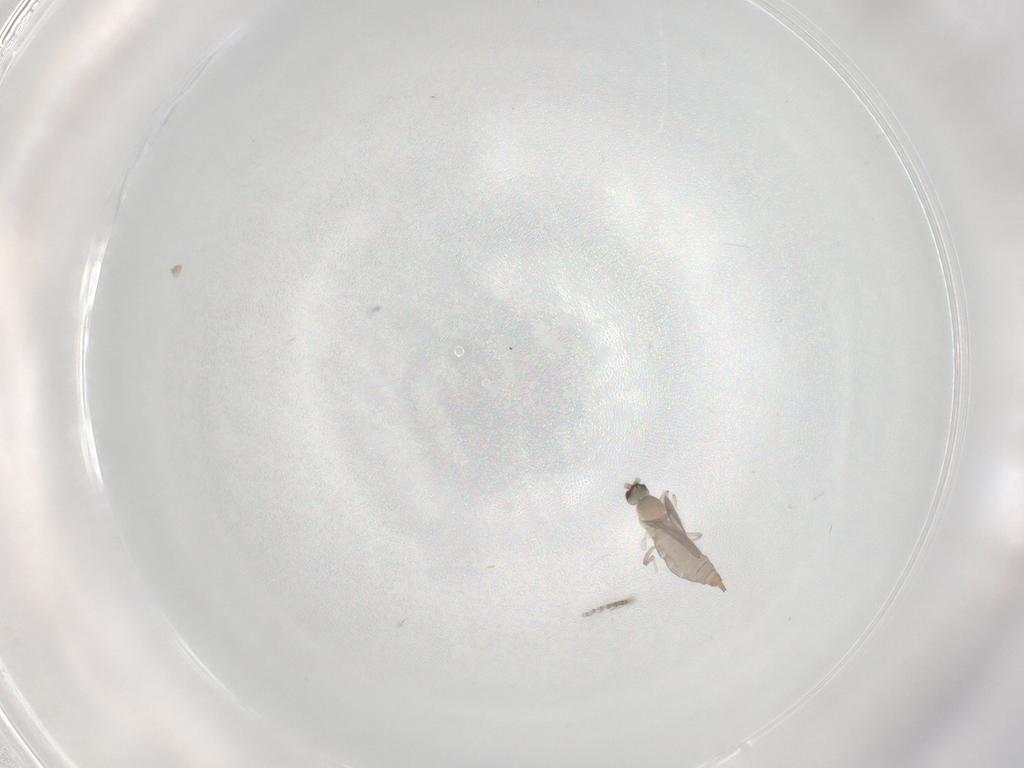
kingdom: Animalia
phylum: Arthropoda
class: Insecta
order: Diptera
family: Cecidomyiidae
